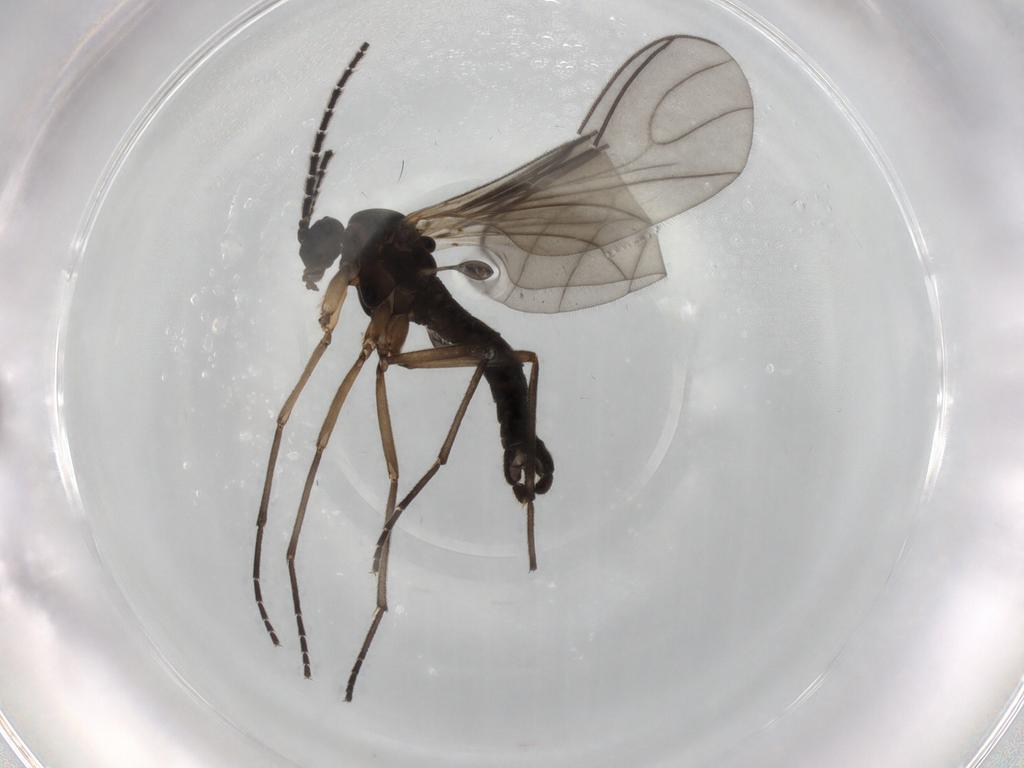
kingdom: Animalia
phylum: Arthropoda
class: Insecta
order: Diptera
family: Sciaridae
